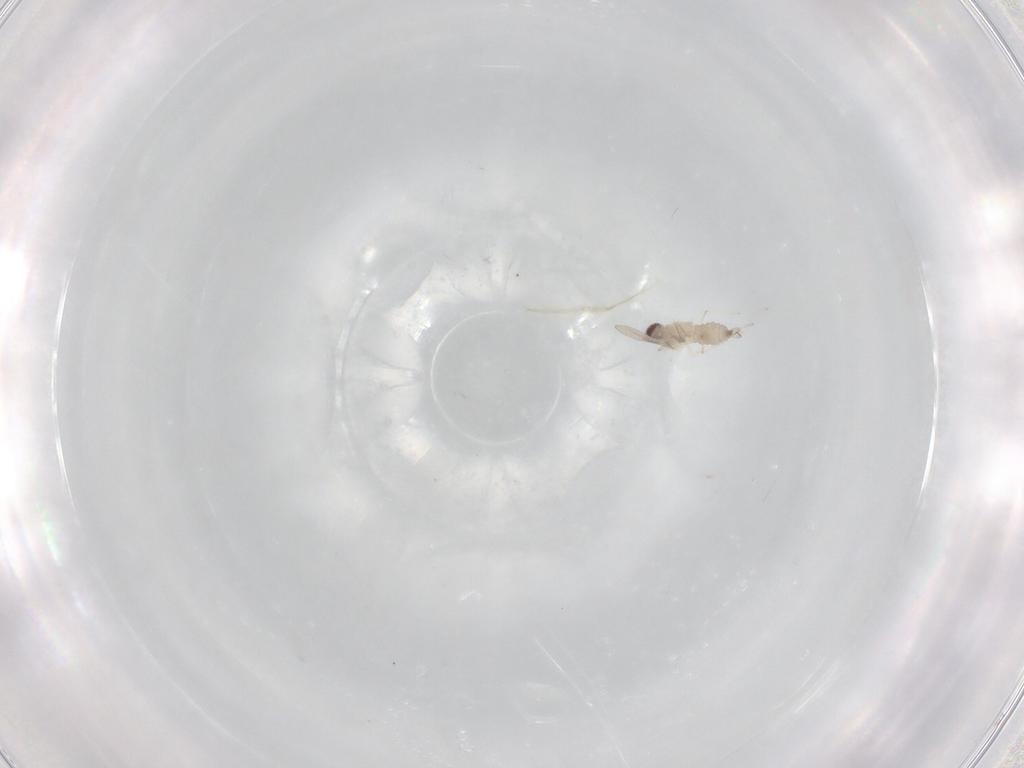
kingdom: Animalia
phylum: Arthropoda
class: Insecta
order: Diptera
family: Cecidomyiidae
